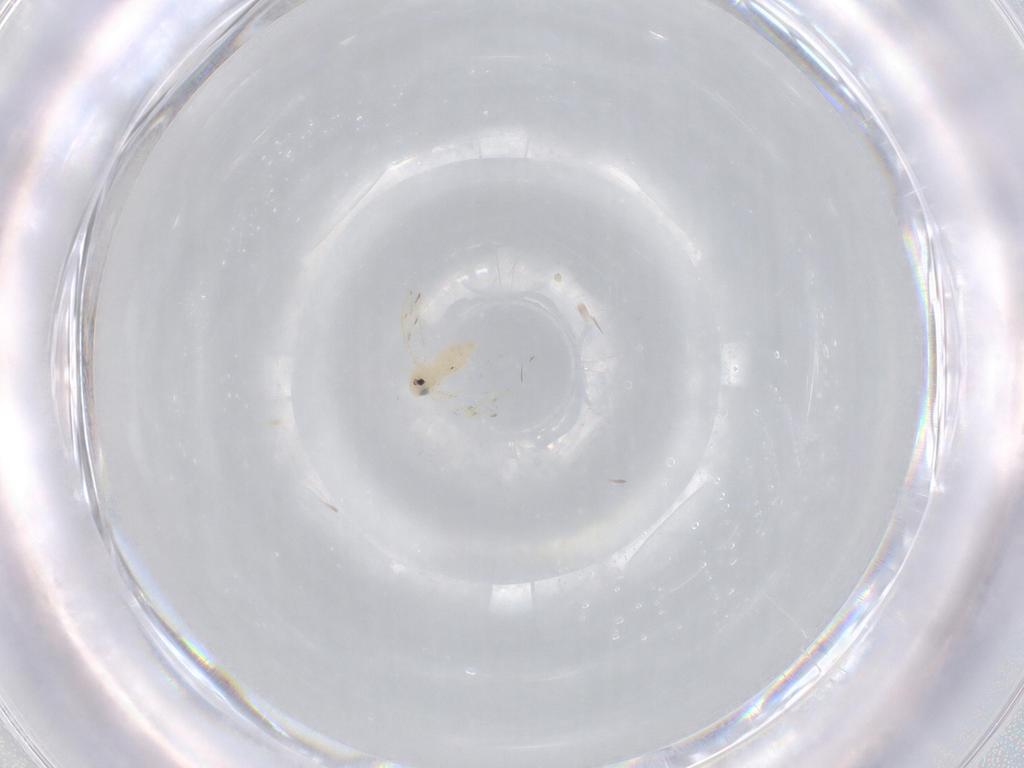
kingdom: Animalia
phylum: Arthropoda
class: Insecta
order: Hemiptera
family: Aleyrodidae
